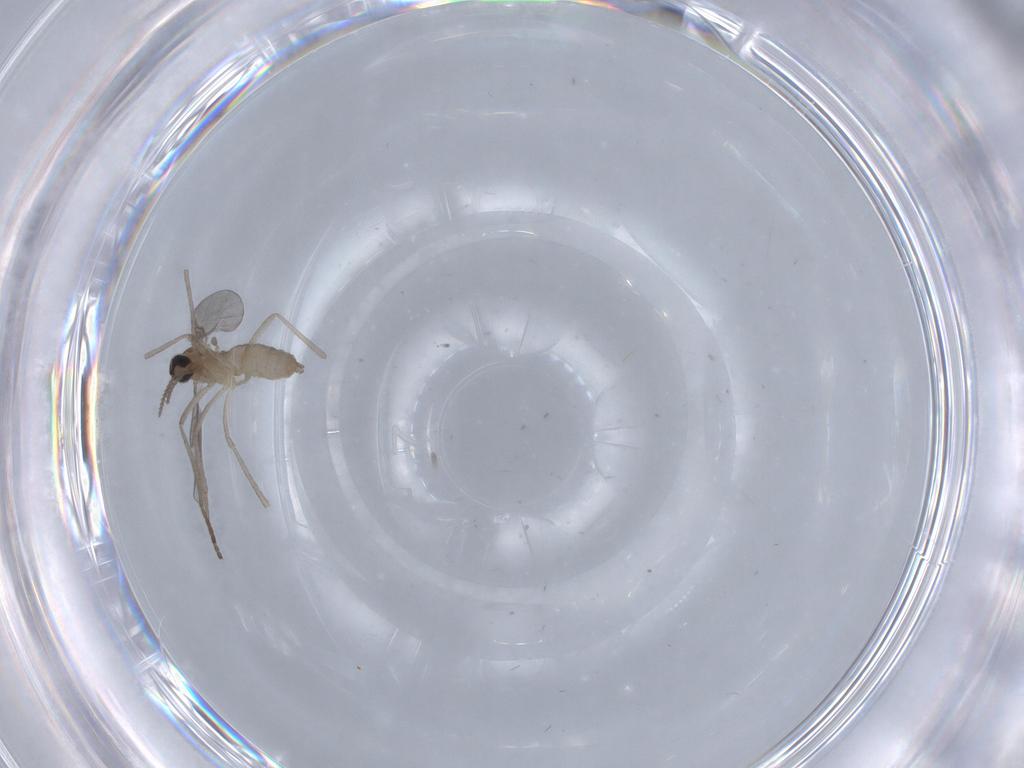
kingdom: Animalia
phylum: Arthropoda
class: Insecta
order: Diptera
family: Cecidomyiidae
